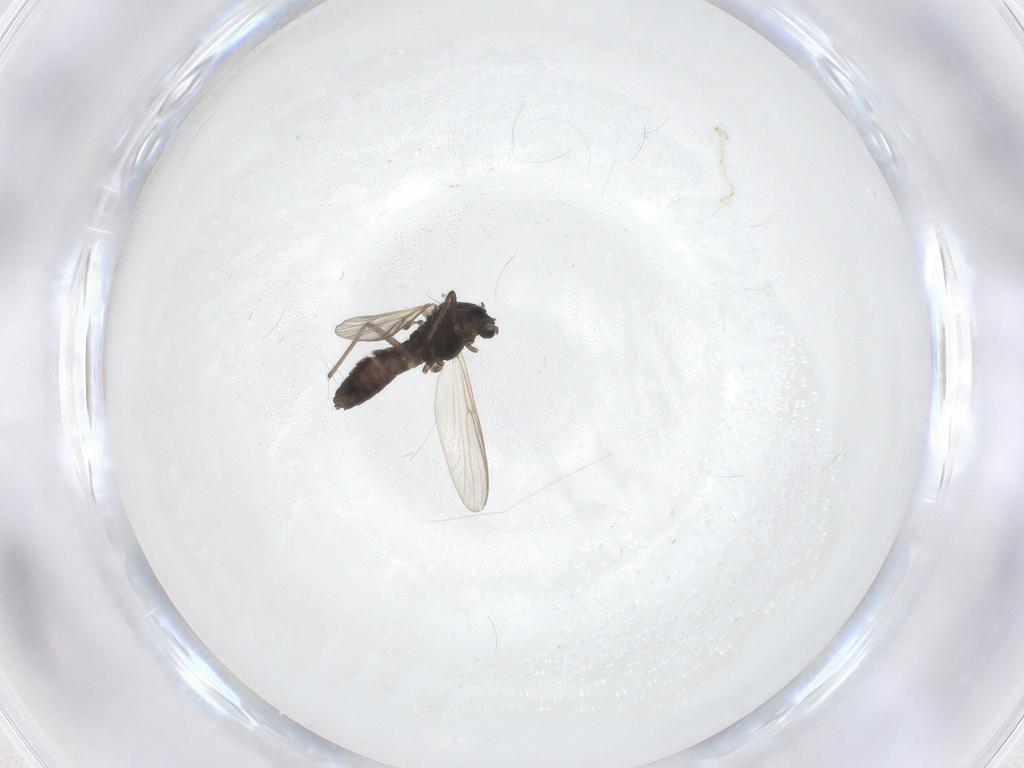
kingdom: Animalia
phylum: Arthropoda
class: Insecta
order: Diptera
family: Chironomidae
